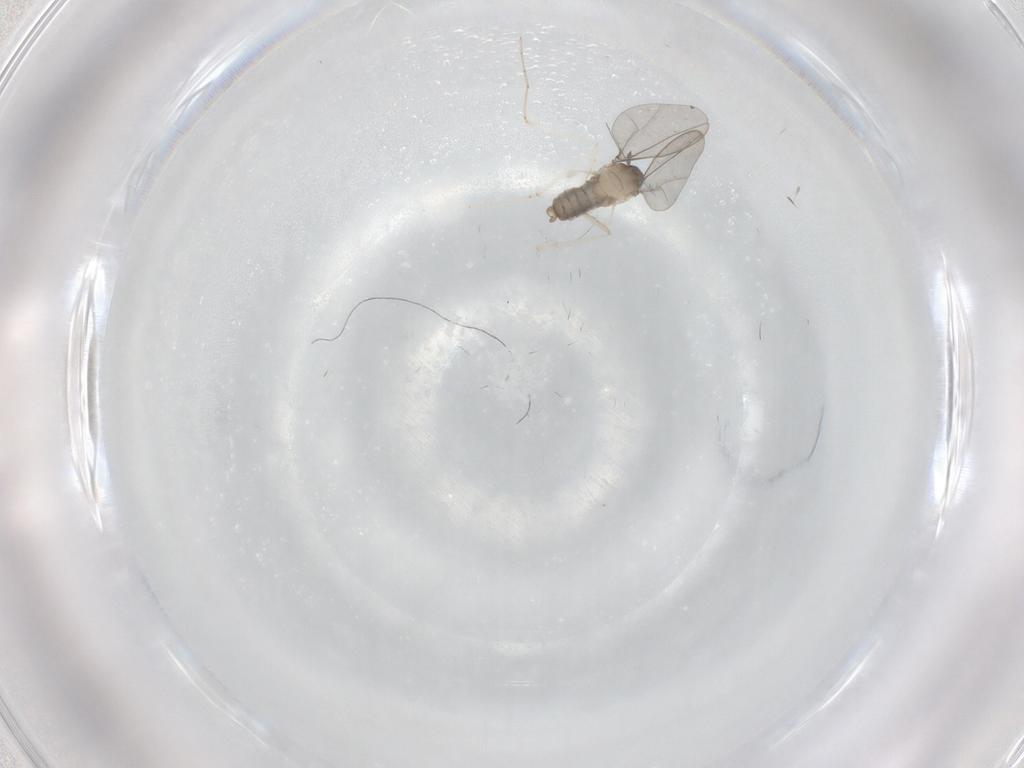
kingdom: Animalia
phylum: Arthropoda
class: Insecta
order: Diptera
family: Cecidomyiidae
